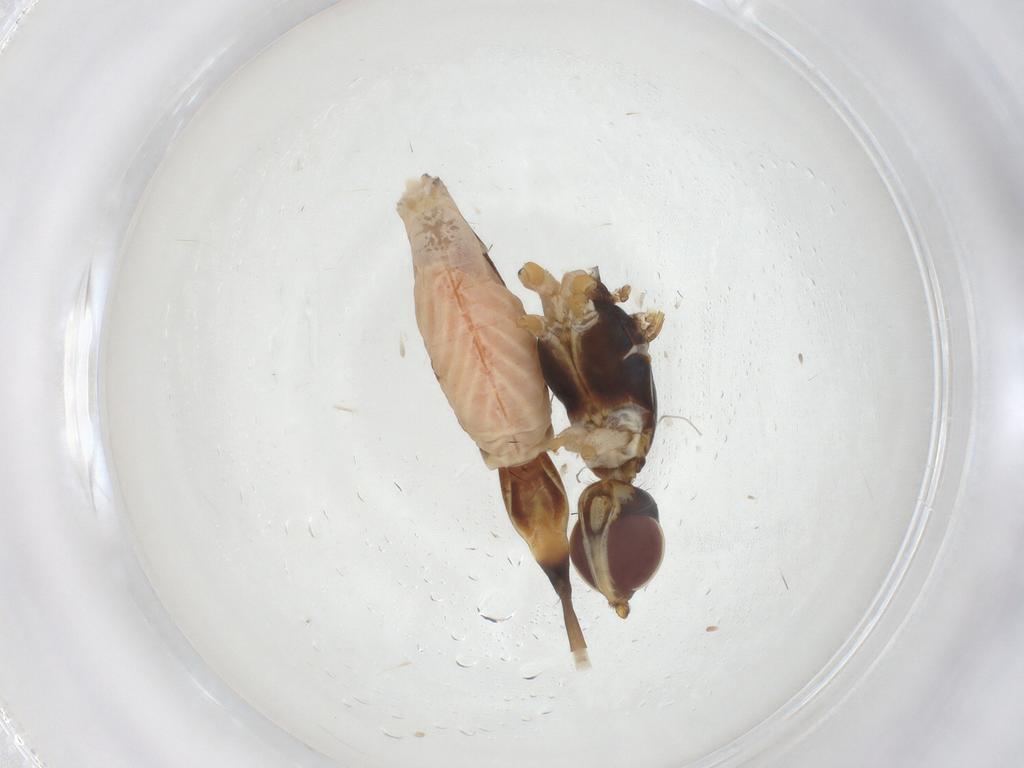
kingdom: Animalia
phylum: Arthropoda
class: Insecta
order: Diptera
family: Micropezidae
